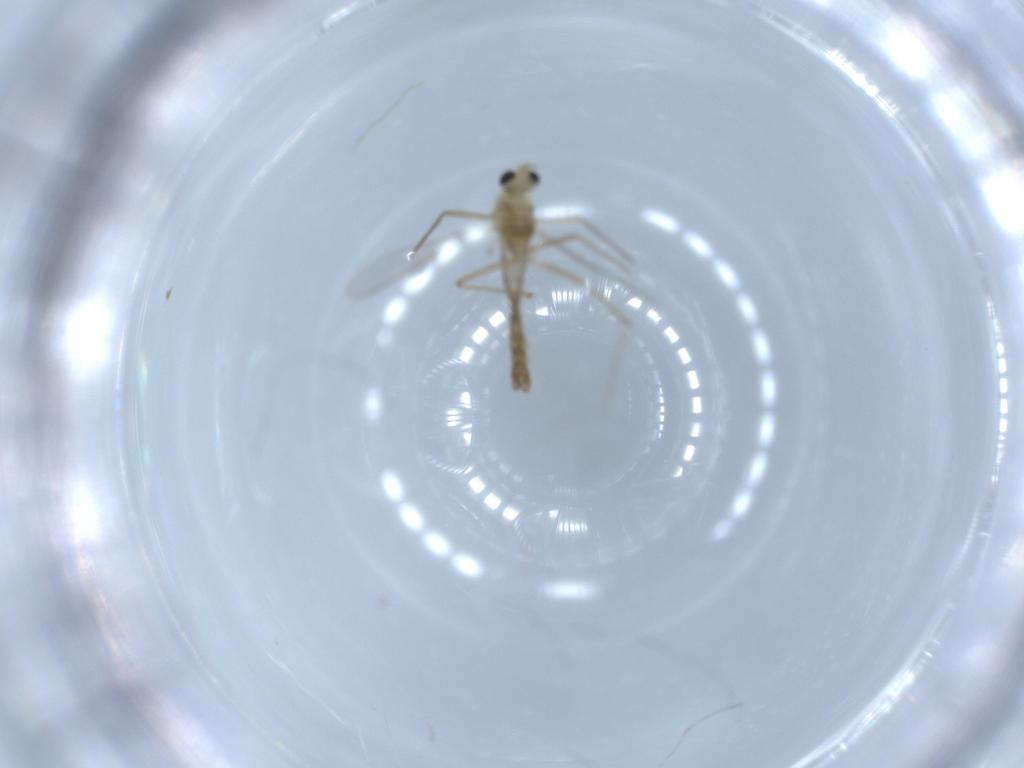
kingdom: Animalia
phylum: Arthropoda
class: Insecta
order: Diptera
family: Chironomidae
